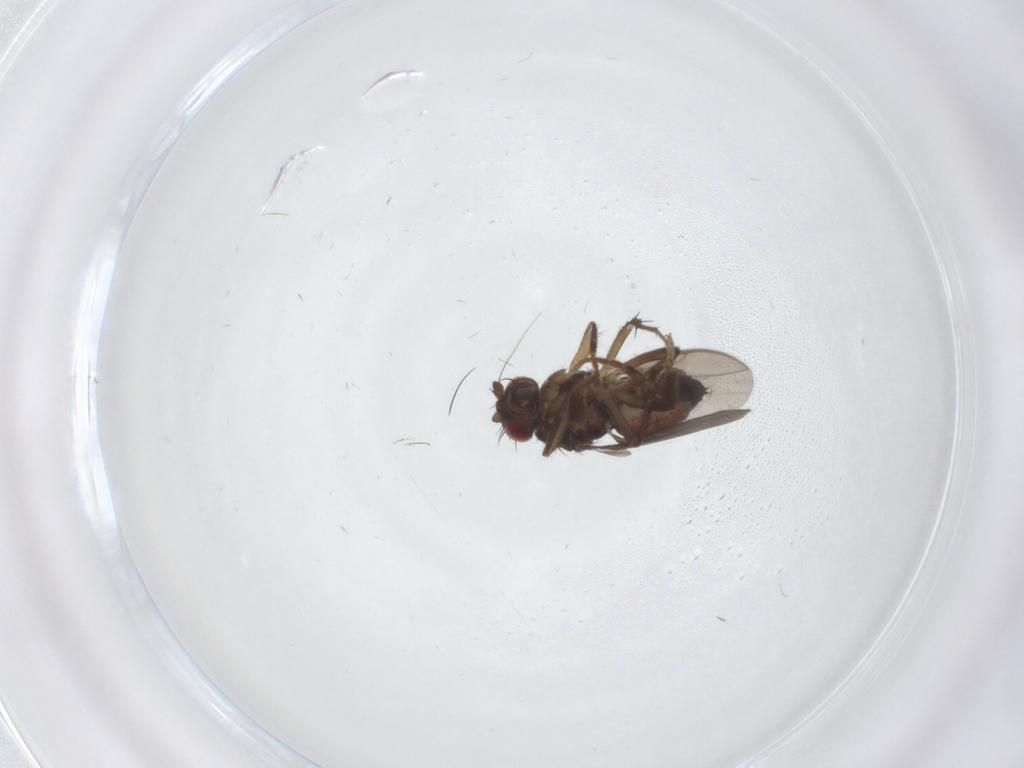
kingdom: Animalia
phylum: Arthropoda
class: Insecta
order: Diptera
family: Sphaeroceridae
